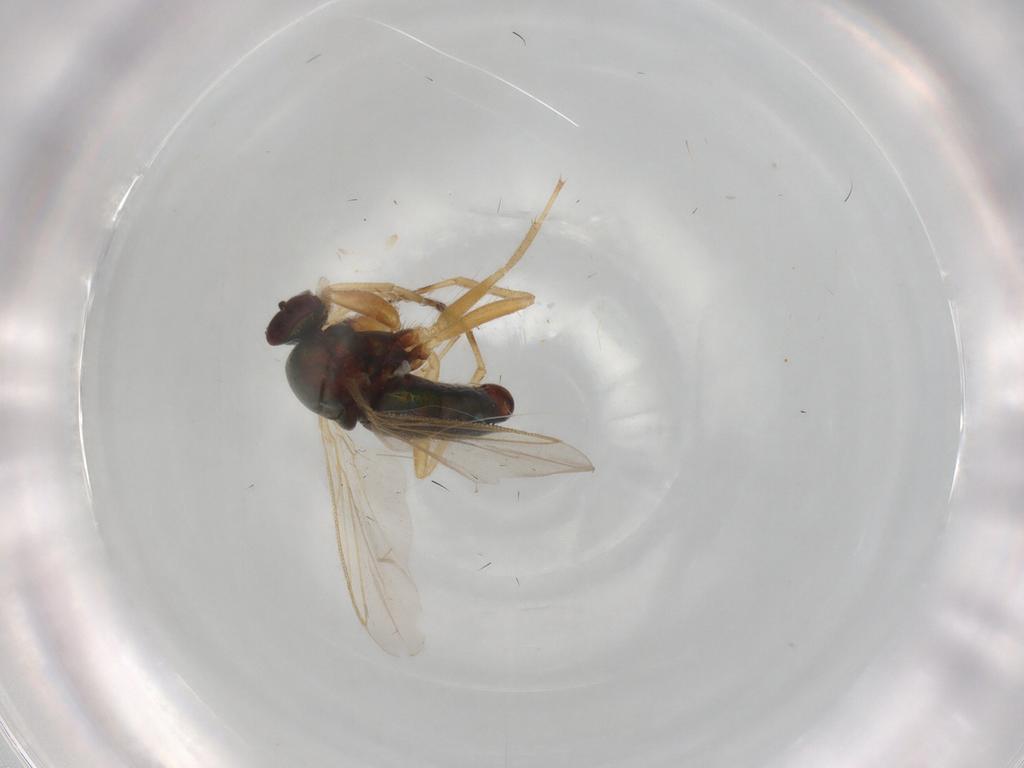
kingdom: Animalia
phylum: Arthropoda
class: Insecta
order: Diptera
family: Dolichopodidae
